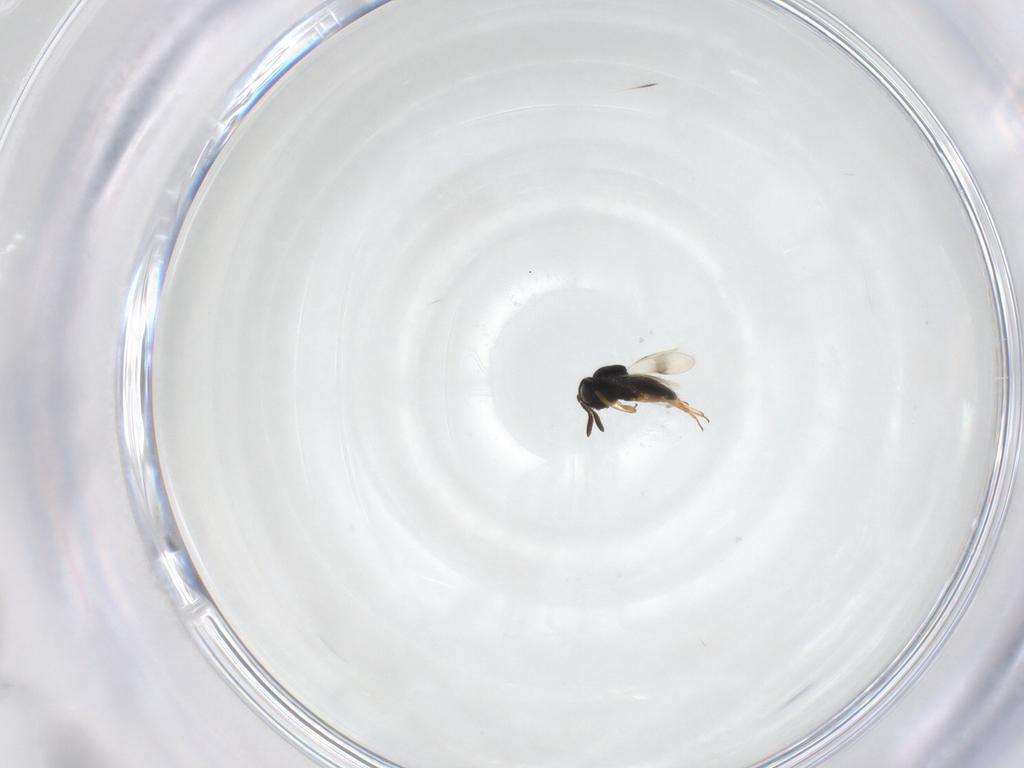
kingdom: Animalia
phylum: Arthropoda
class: Insecta
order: Hymenoptera
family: Scelionidae
